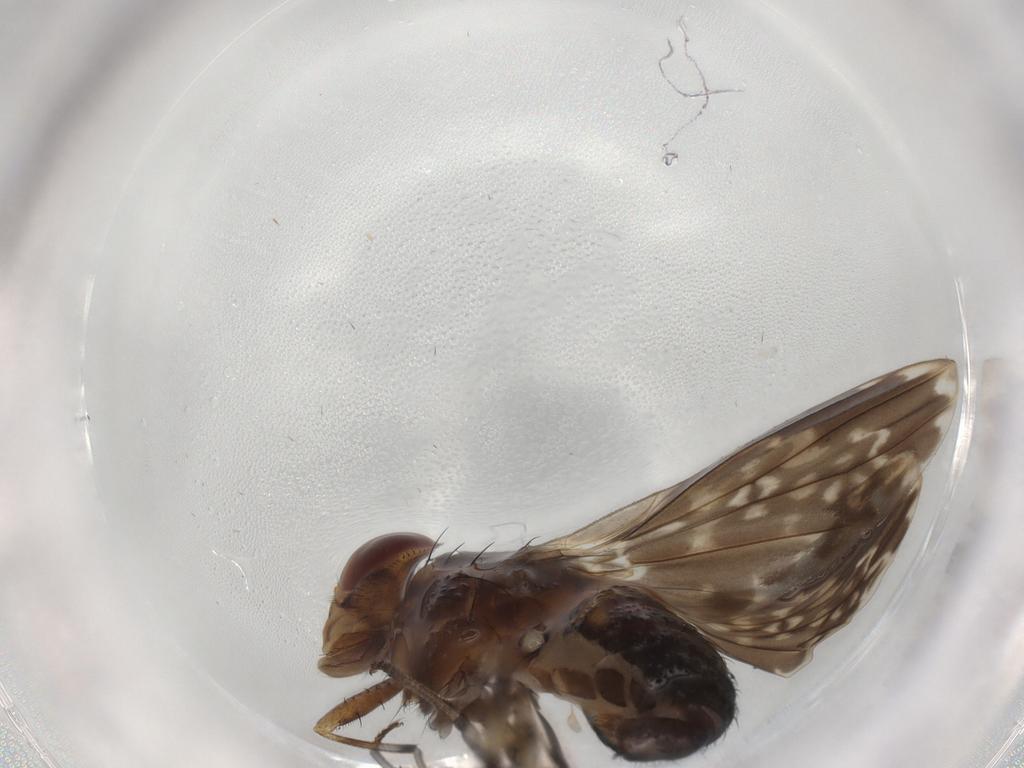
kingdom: Animalia
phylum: Arthropoda
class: Insecta
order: Diptera
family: Lauxaniidae
